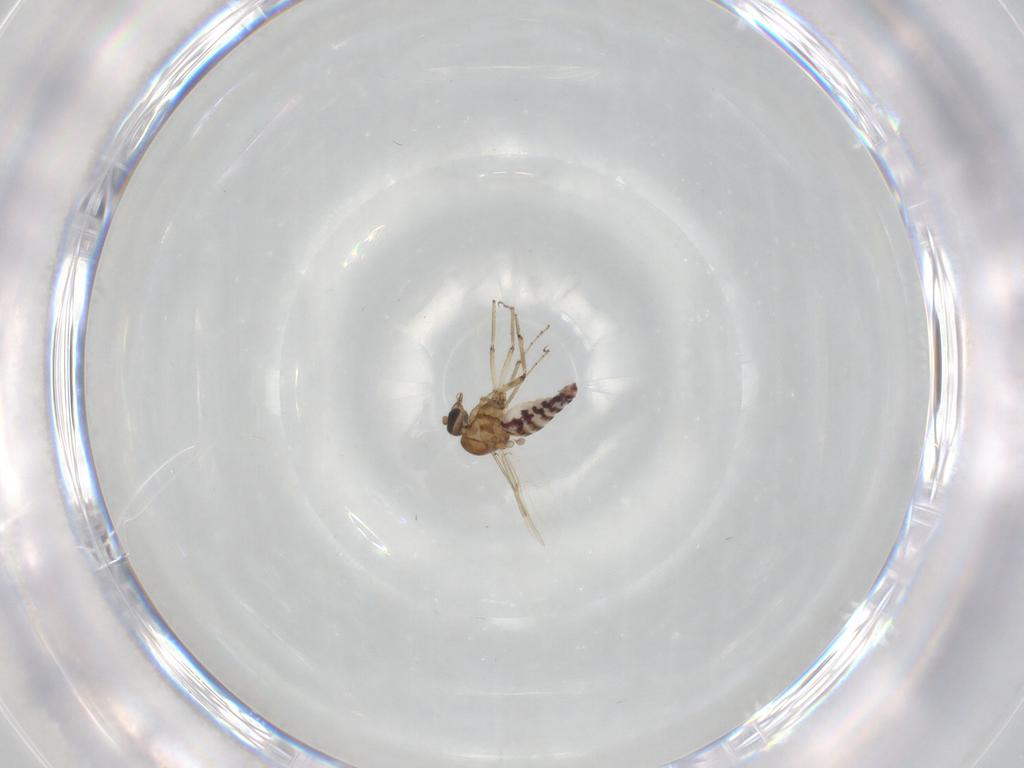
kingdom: Animalia
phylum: Arthropoda
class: Insecta
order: Diptera
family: Ceratopogonidae
